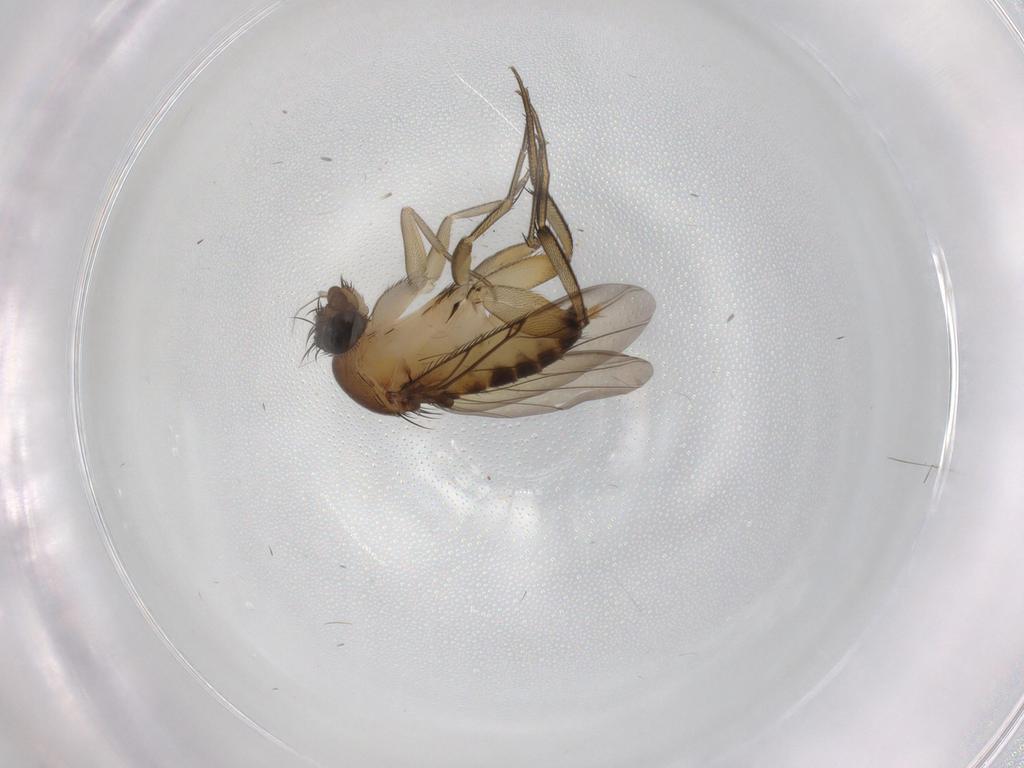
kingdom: Animalia
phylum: Arthropoda
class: Insecta
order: Diptera
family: Phoridae
